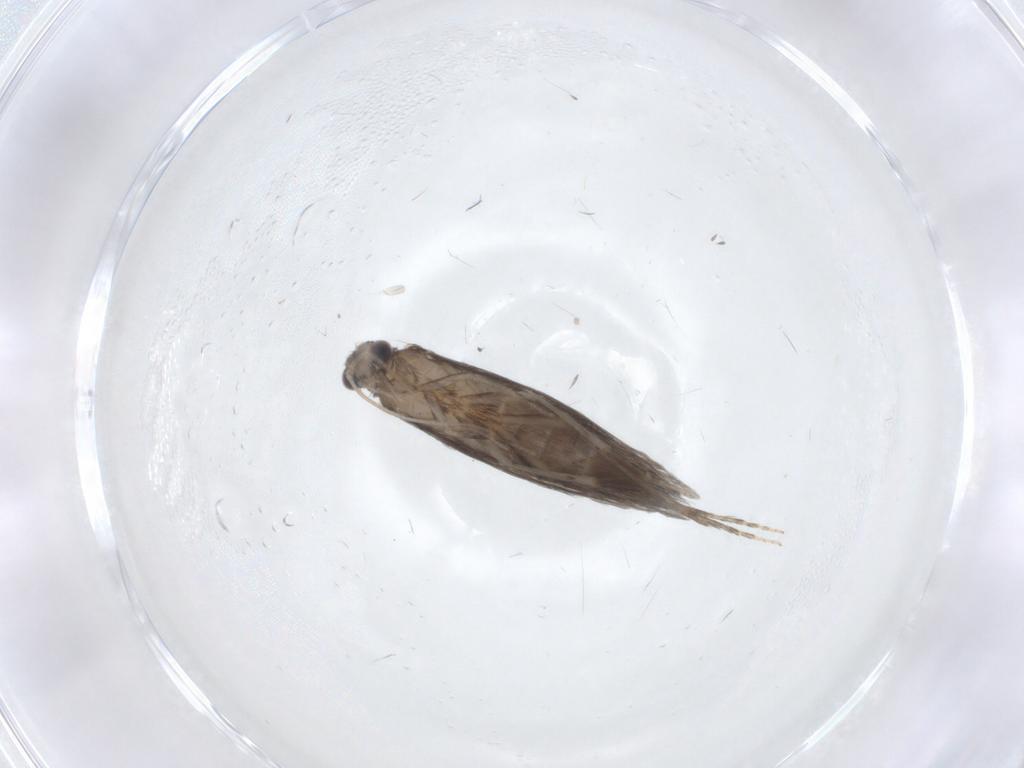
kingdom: Animalia
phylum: Arthropoda
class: Insecta
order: Trichoptera
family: Hydroptilidae
